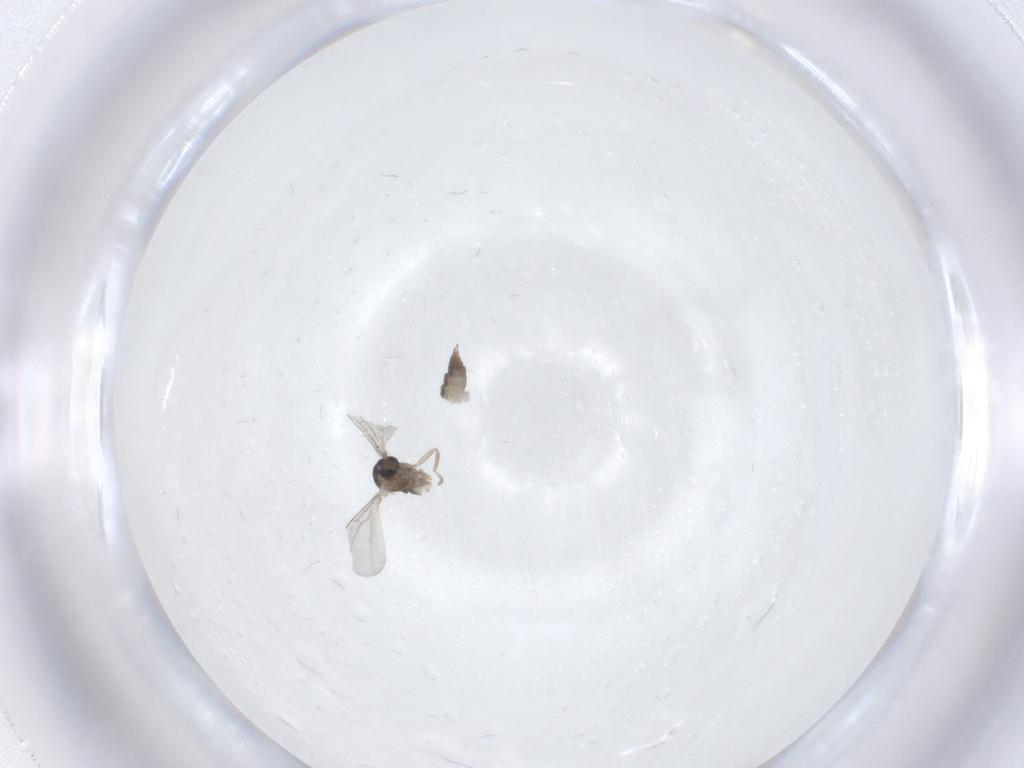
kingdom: Animalia
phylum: Arthropoda
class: Insecta
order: Diptera
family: Cecidomyiidae
